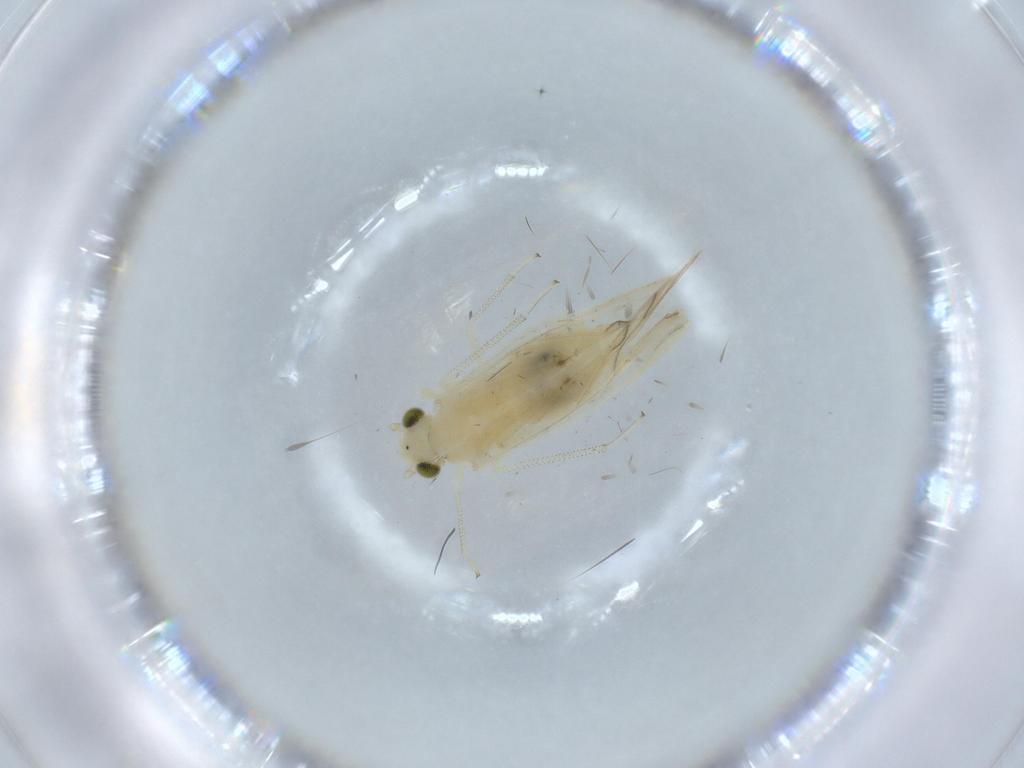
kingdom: Animalia
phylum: Arthropoda
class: Insecta
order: Psocodea
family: Caeciliusidae
